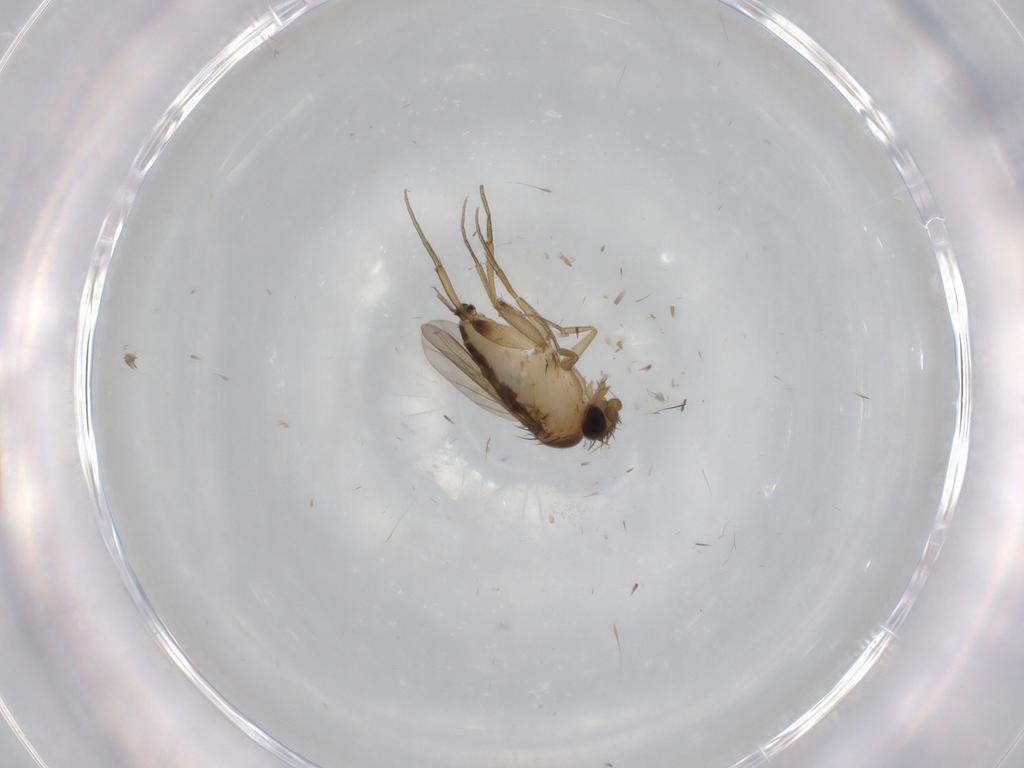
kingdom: Animalia
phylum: Arthropoda
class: Insecta
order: Diptera
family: Phoridae
